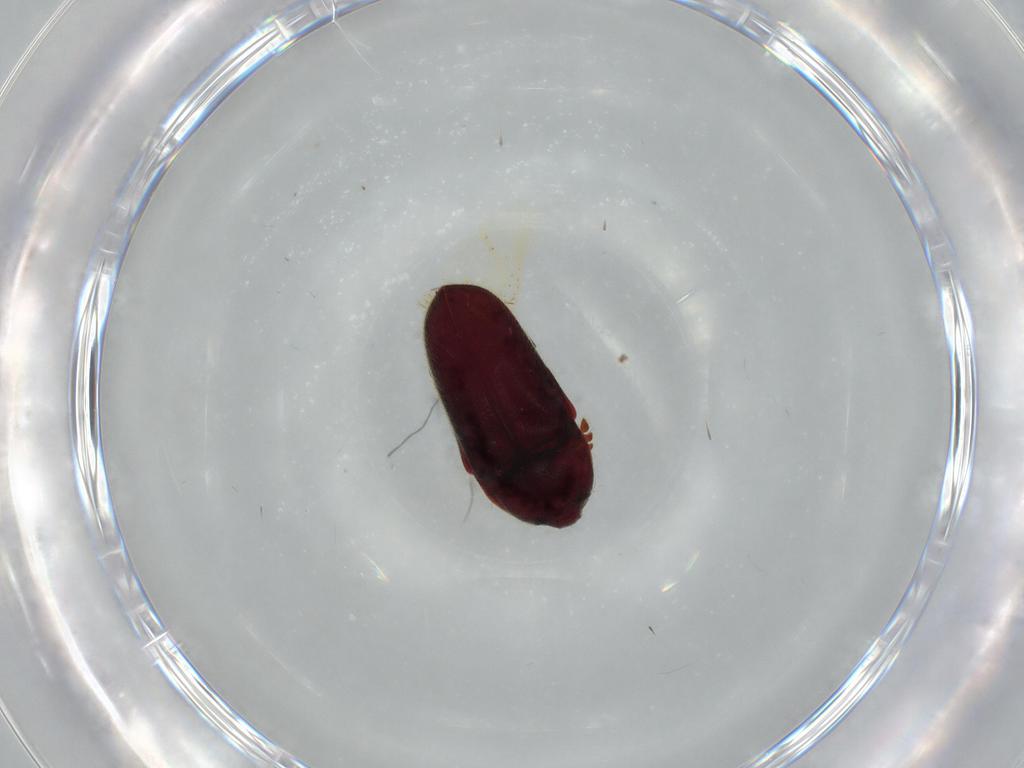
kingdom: Animalia
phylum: Arthropoda
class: Insecta
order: Coleoptera
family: Throscidae
